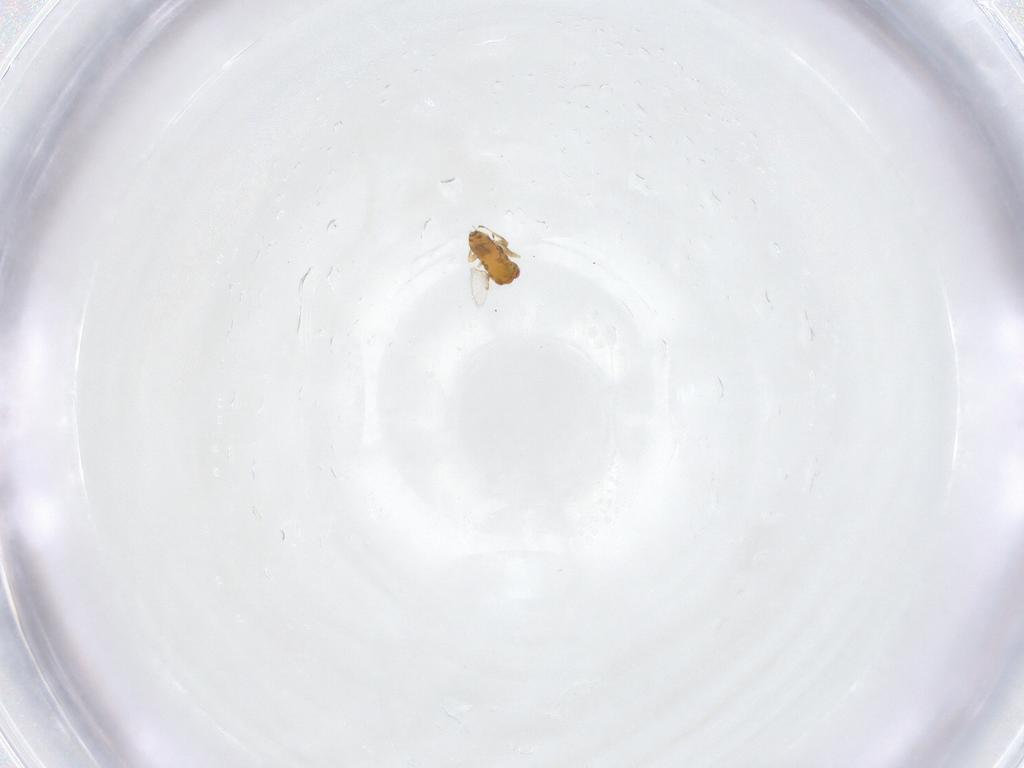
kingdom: Animalia
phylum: Arthropoda
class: Insecta
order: Hymenoptera
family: Trichogrammatidae
